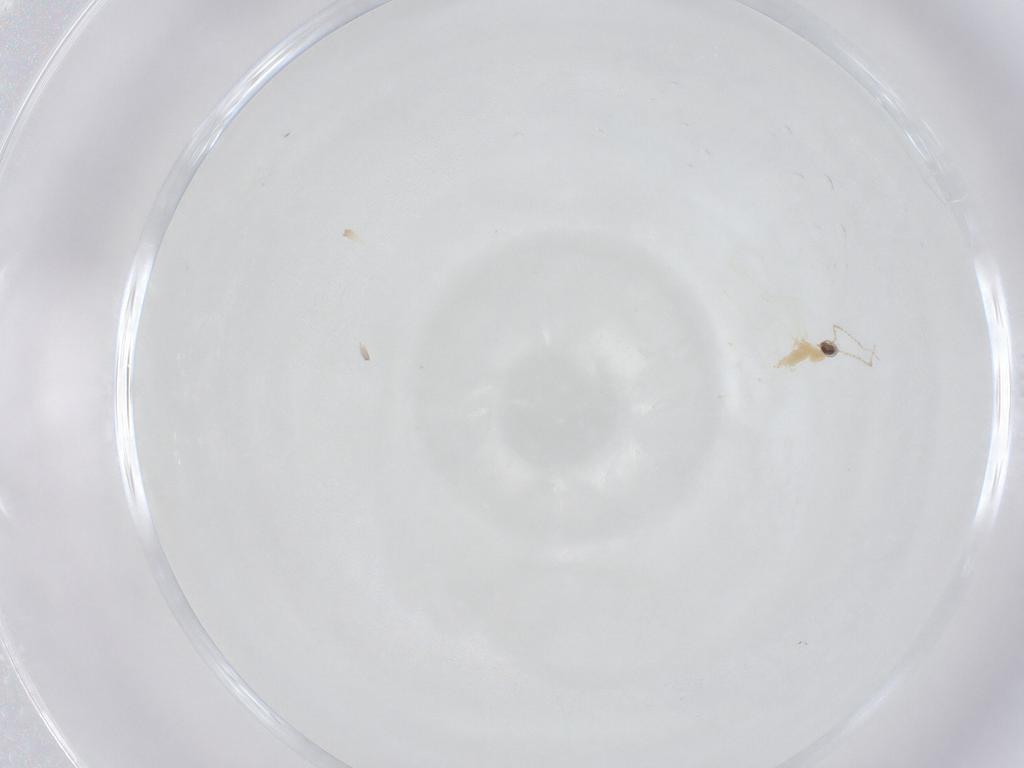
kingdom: Animalia
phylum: Arthropoda
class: Insecta
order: Diptera
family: Cecidomyiidae
